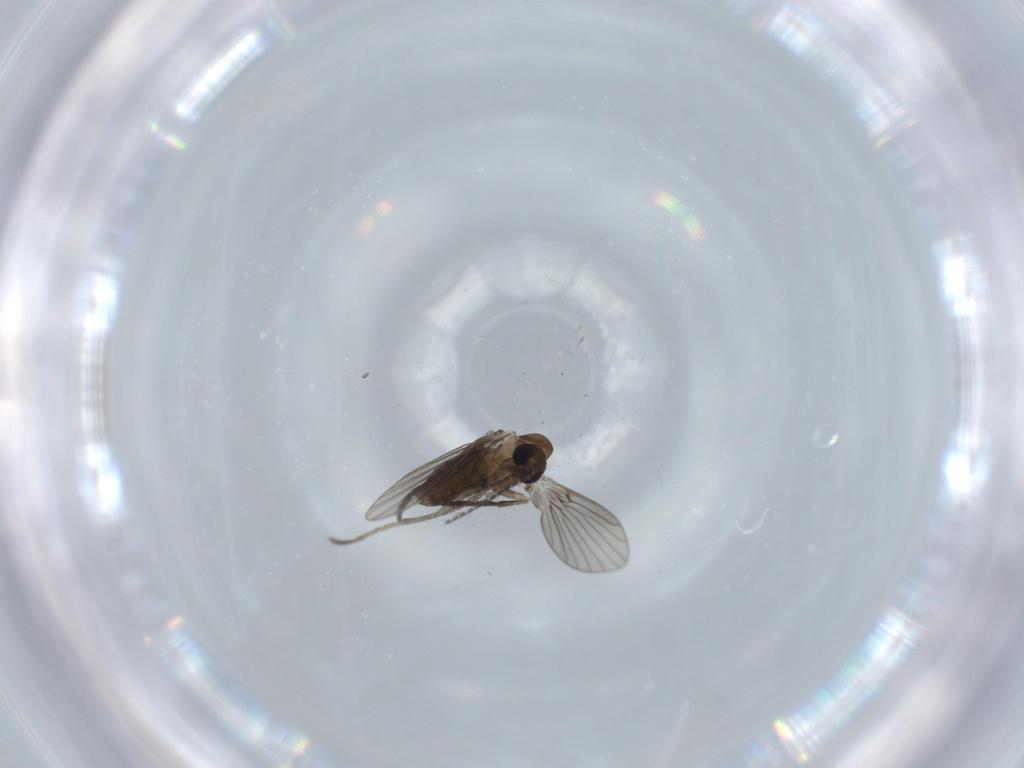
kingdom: Animalia
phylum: Arthropoda
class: Insecta
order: Diptera
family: Psychodidae
